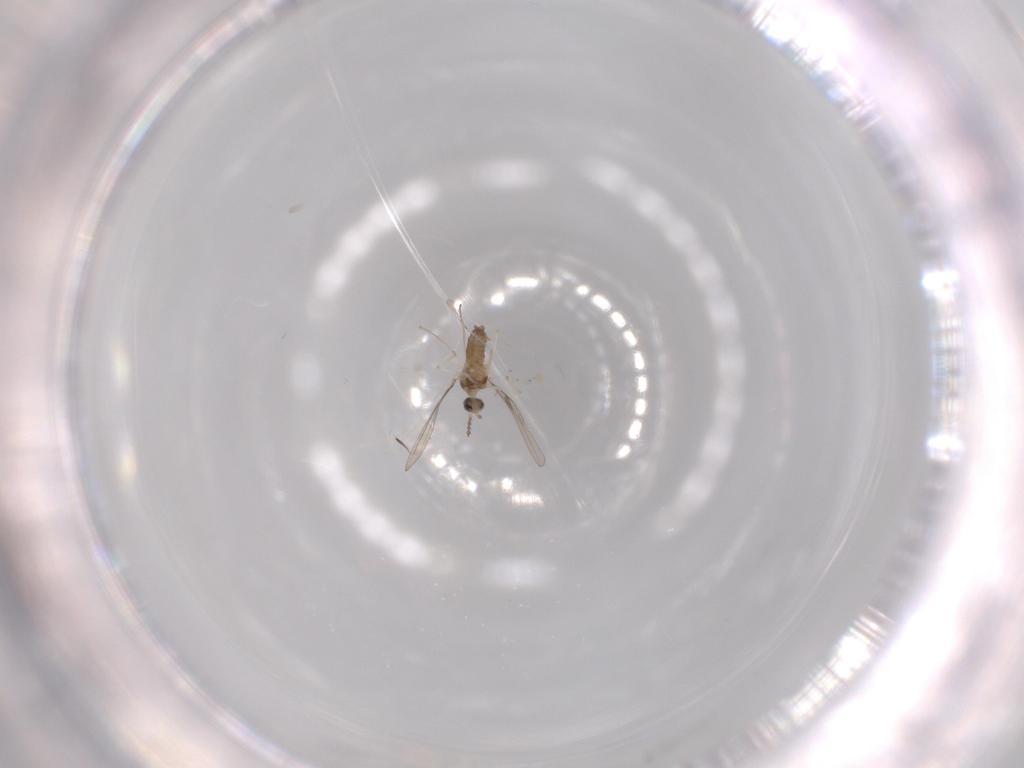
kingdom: Animalia
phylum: Arthropoda
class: Insecta
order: Diptera
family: Cecidomyiidae
